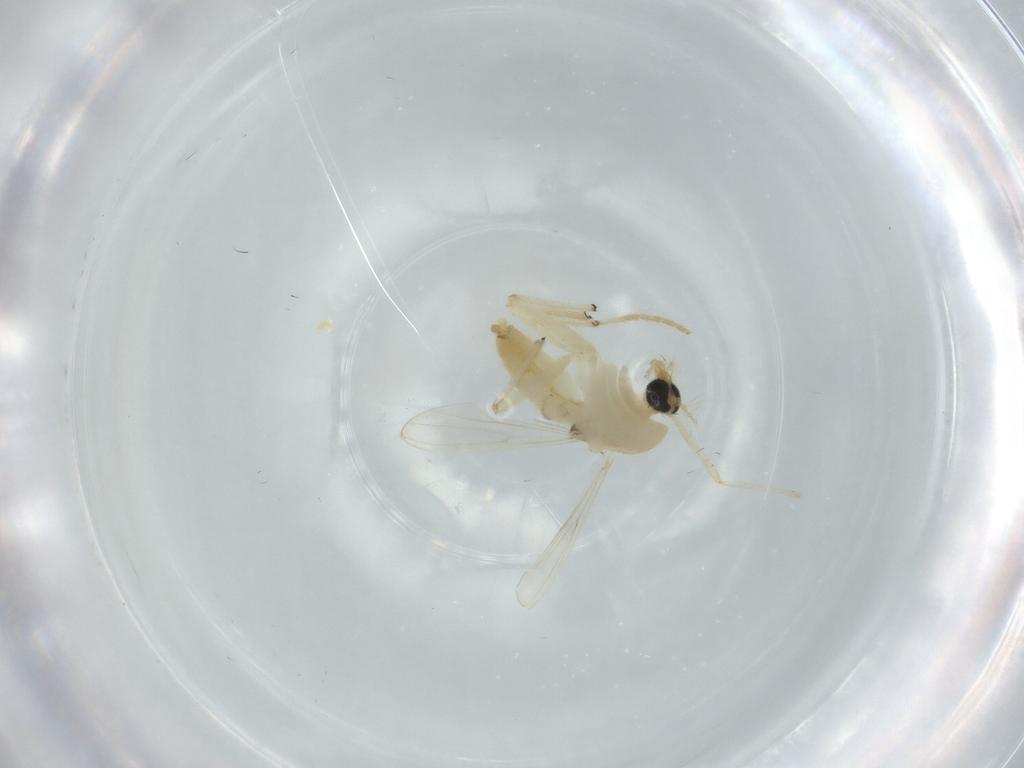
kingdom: Animalia
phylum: Arthropoda
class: Insecta
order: Diptera
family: Chironomidae
